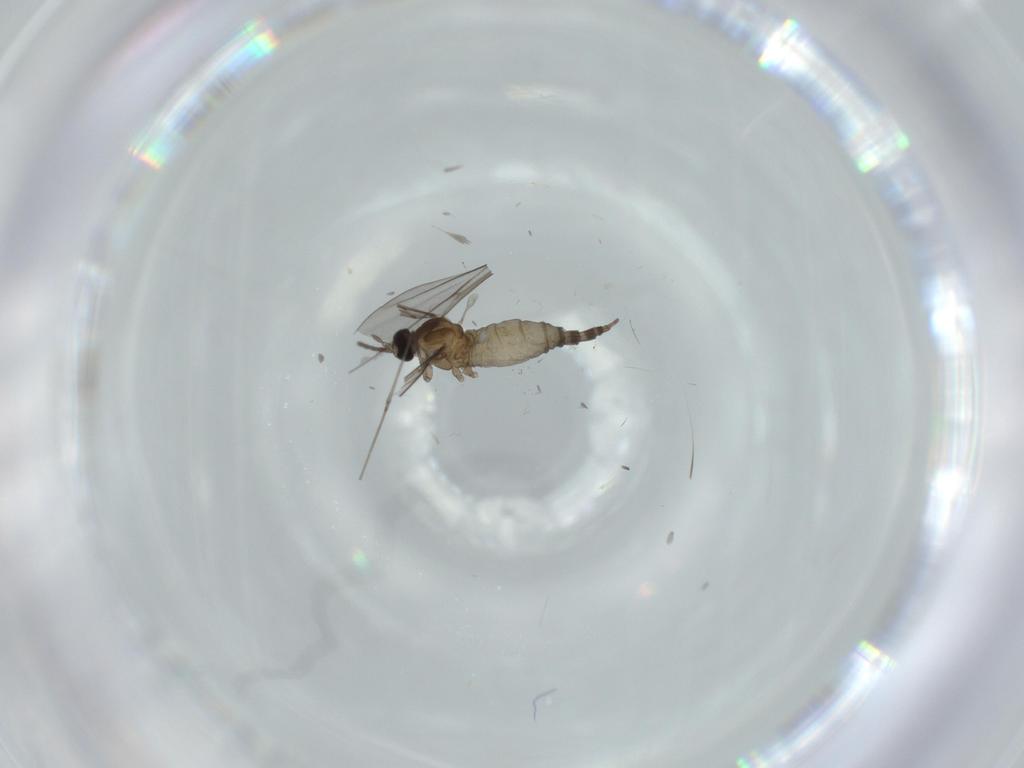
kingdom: Animalia
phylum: Arthropoda
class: Insecta
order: Diptera
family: Cecidomyiidae
